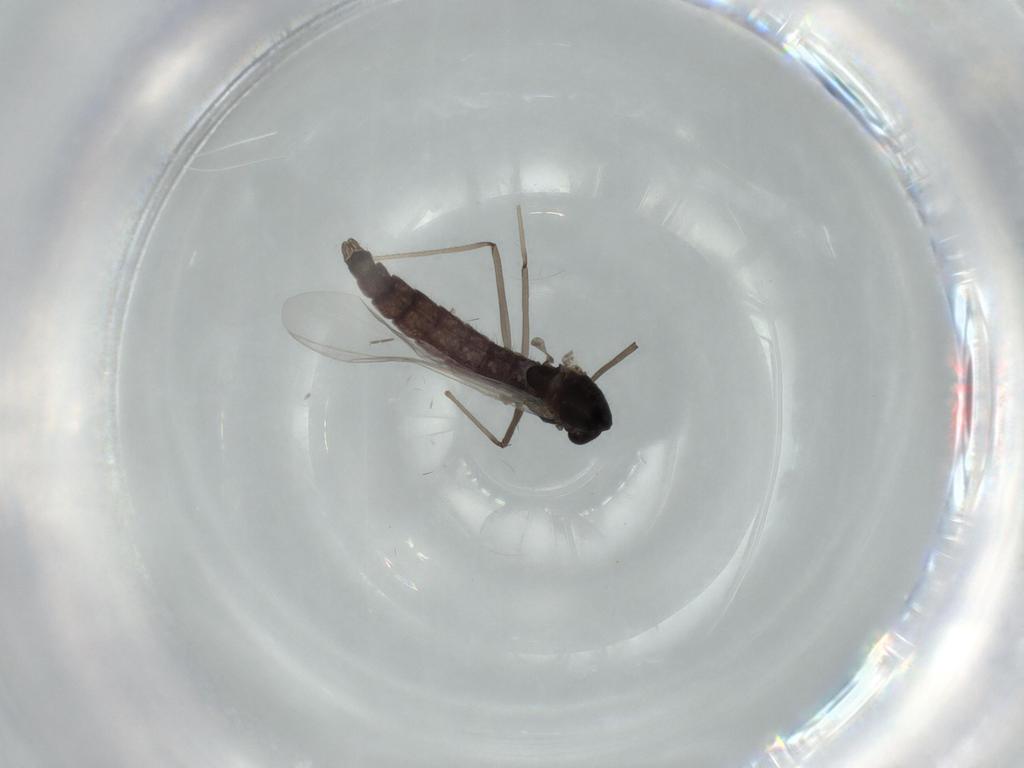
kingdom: Animalia
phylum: Arthropoda
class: Insecta
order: Diptera
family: Chironomidae
